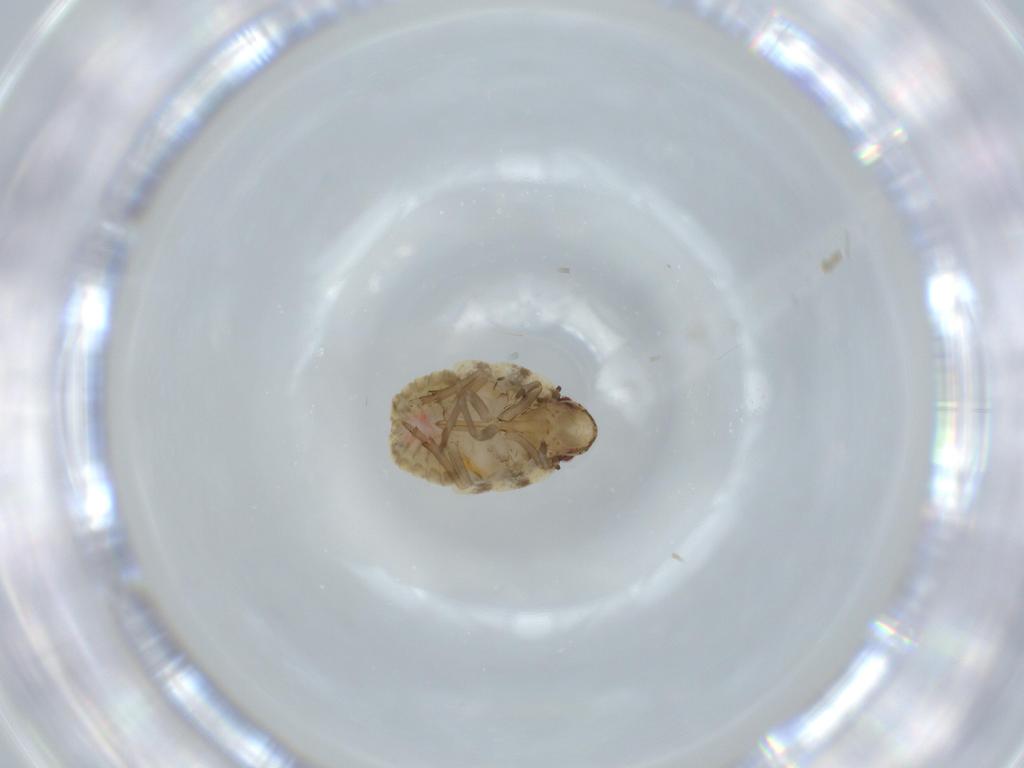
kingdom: Animalia
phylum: Arthropoda
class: Insecta
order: Hemiptera
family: Flatidae
